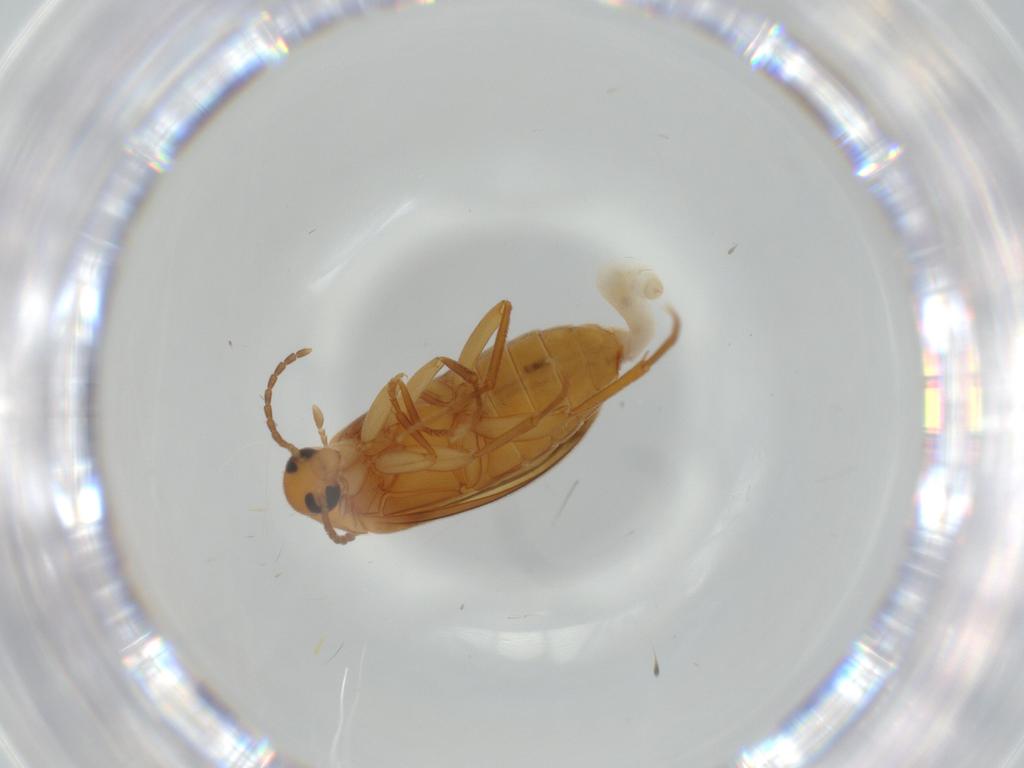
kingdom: Animalia
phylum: Arthropoda
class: Insecta
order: Coleoptera
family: Scraptiidae
